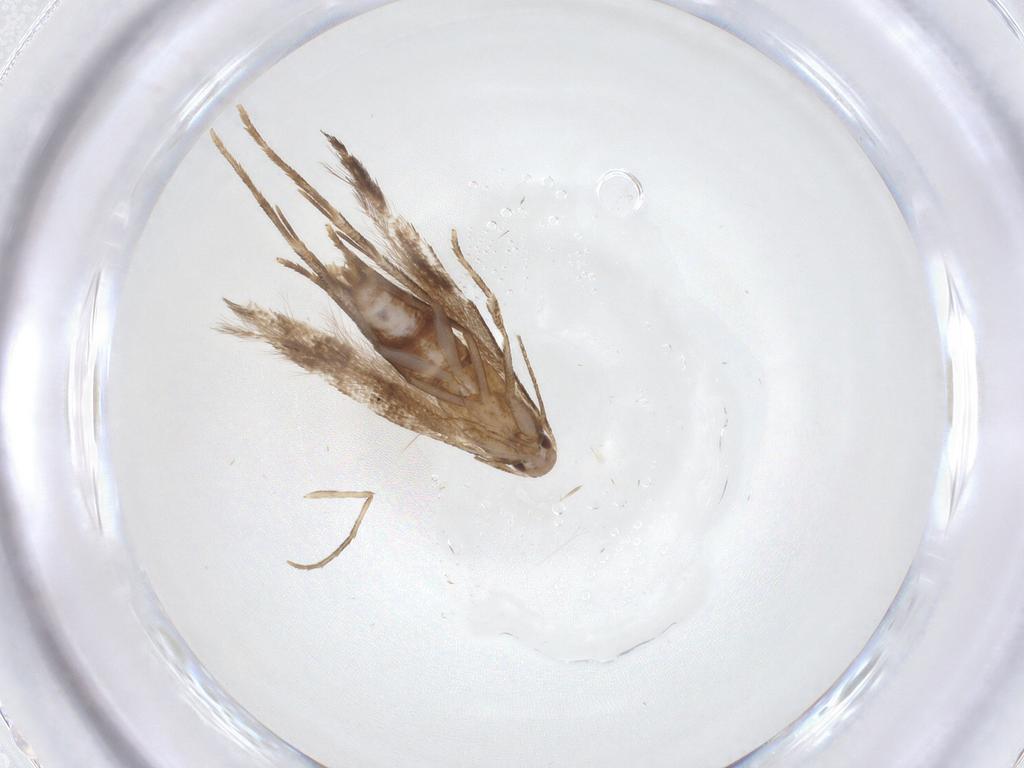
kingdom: Animalia
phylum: Arthropoda
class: Insecta
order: Lepidoptera
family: Cosmopterigidae
